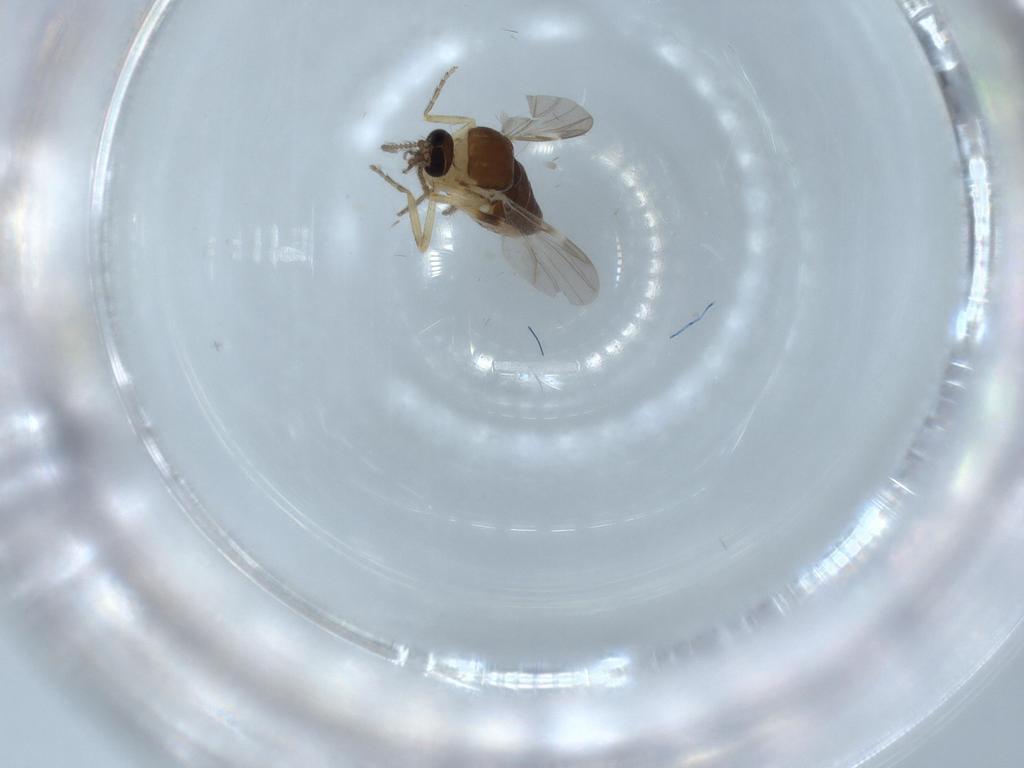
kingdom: Animalia
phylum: Arthropoda
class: Insecta
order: Diptera
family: Ceratopogonidae
